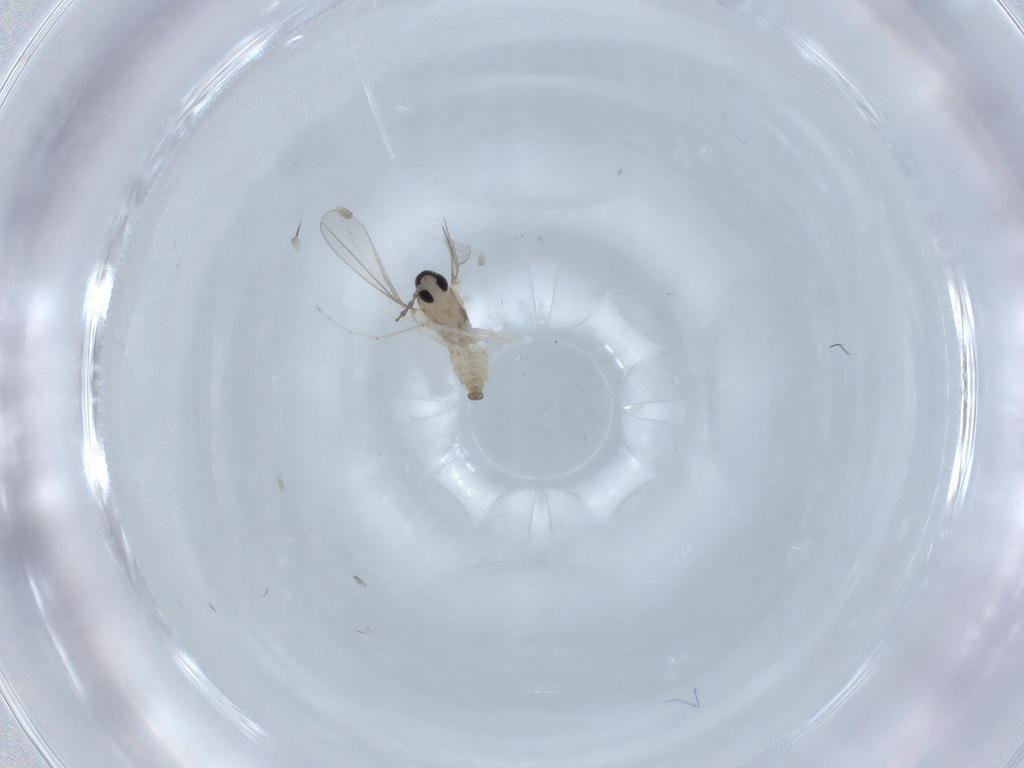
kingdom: Animalia
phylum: Arthropoda
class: Insecta
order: Diptera
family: Cecidomyiidae
